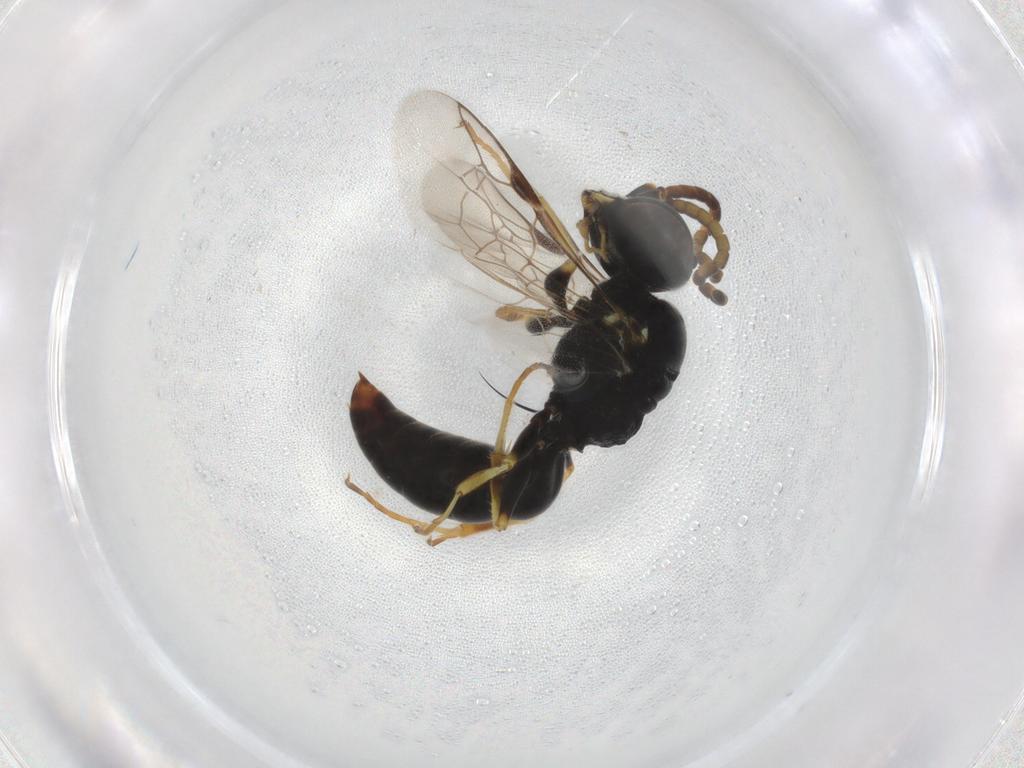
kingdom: Animalia
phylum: Arthropoda
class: Insecta
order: Hymenoptera
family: Crabronidae
